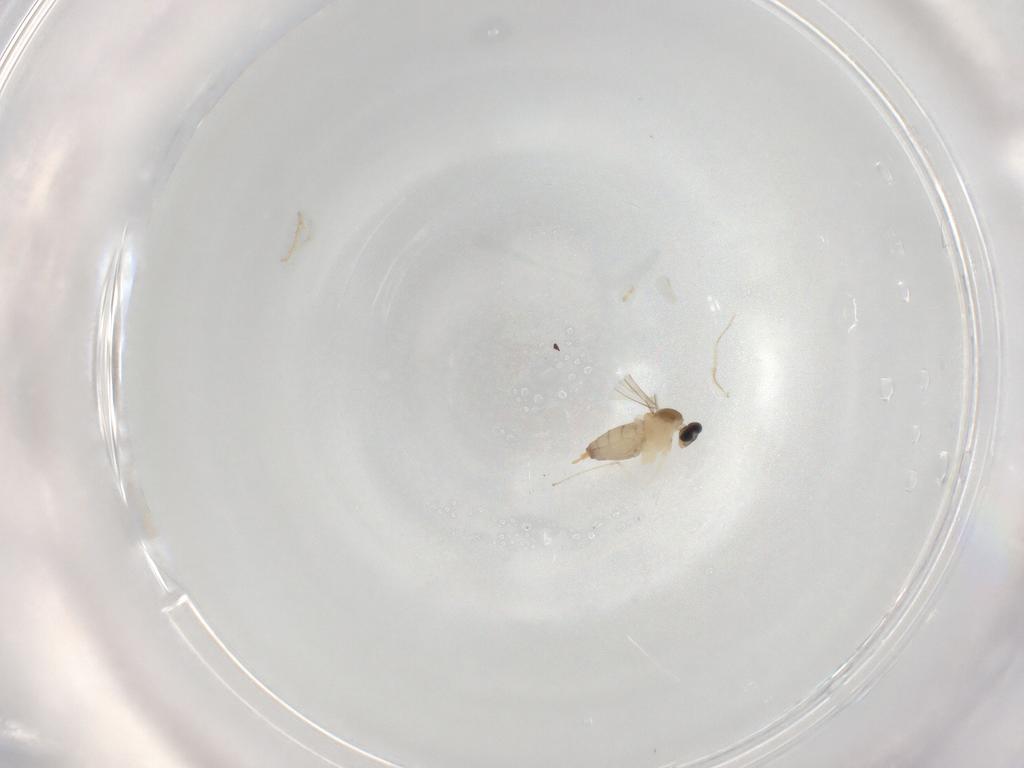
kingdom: Animalia
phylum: Arthropoda
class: Insecta
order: Diptera
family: Cecidomyiidae
